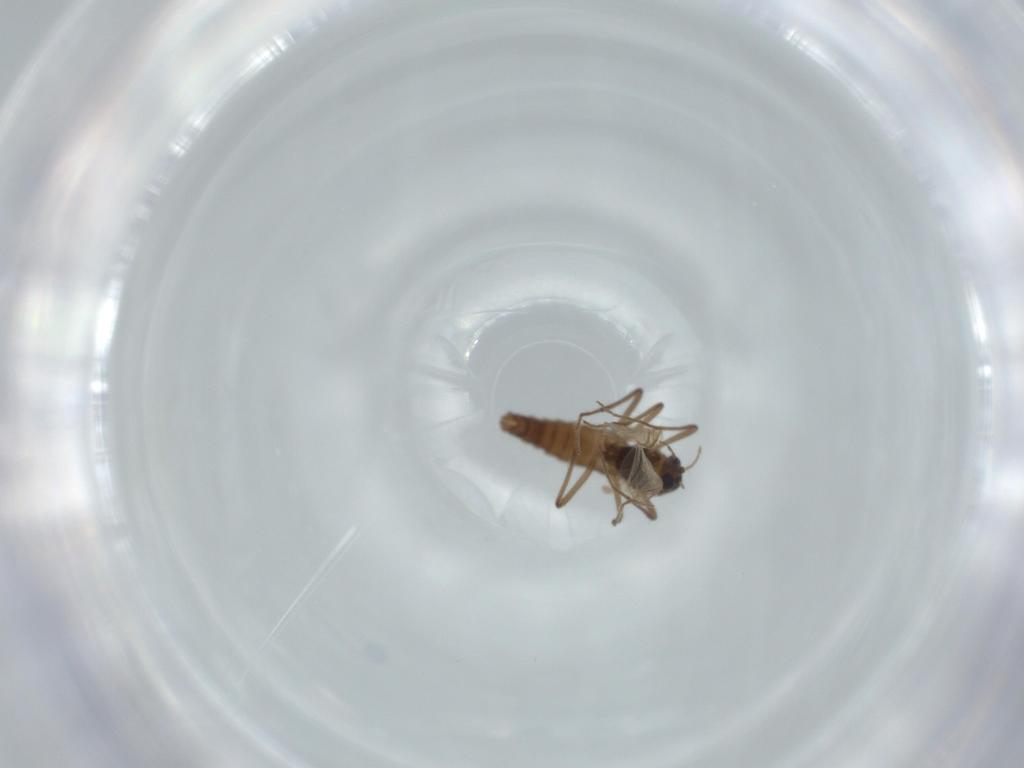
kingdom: Animalia
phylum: Arthropoda
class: Insecta
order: Diptera
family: Chironomidae
